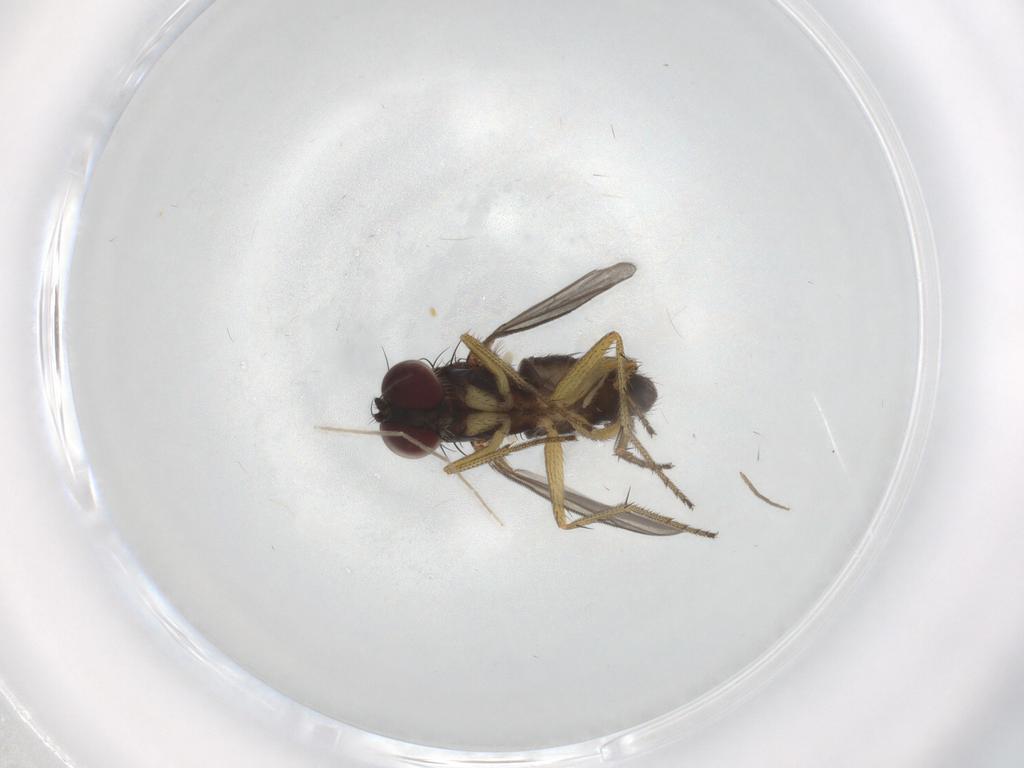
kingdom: Animalia
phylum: Arthropoda
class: Insecta
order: Diptera
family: Chironomidae
